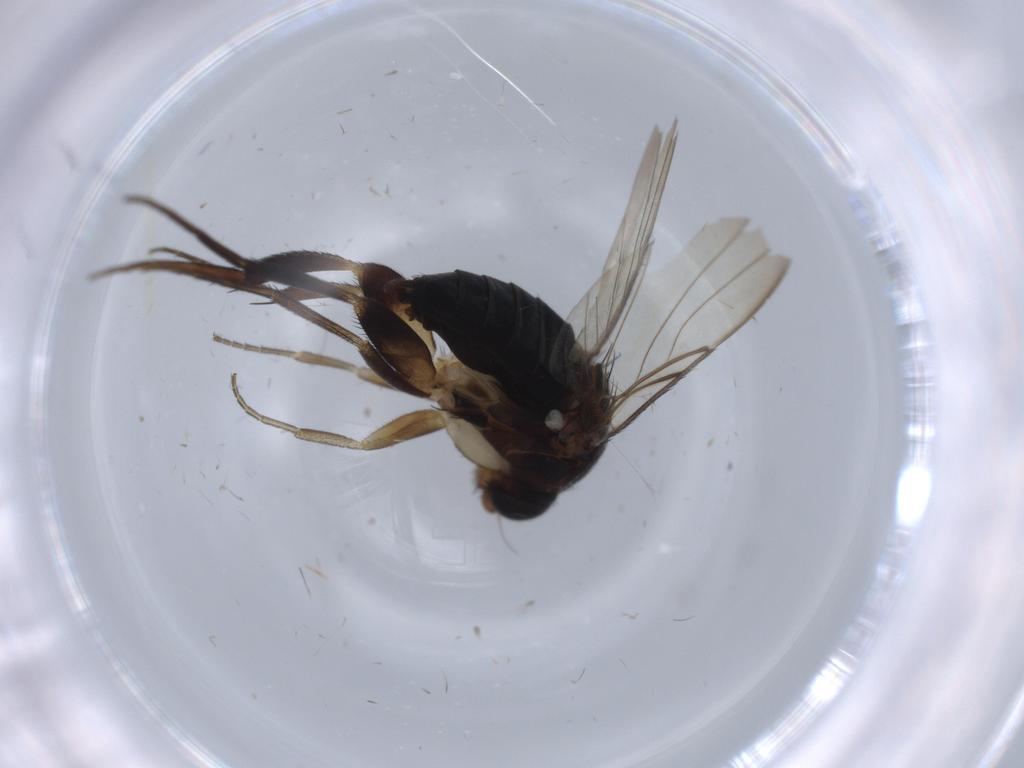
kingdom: Animalia
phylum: Arthropoda
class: Insecta
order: Diptera
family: Phoridae
